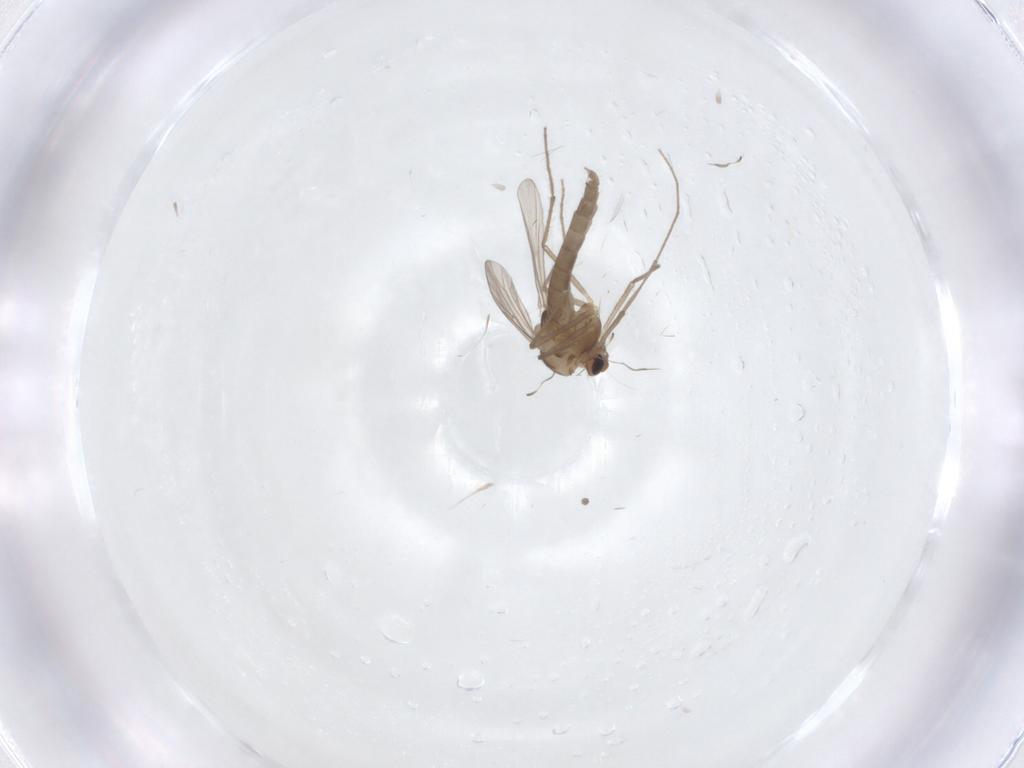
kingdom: Animalia
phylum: Arthropoda
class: Insecta
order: Diptera
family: Chironomidae
